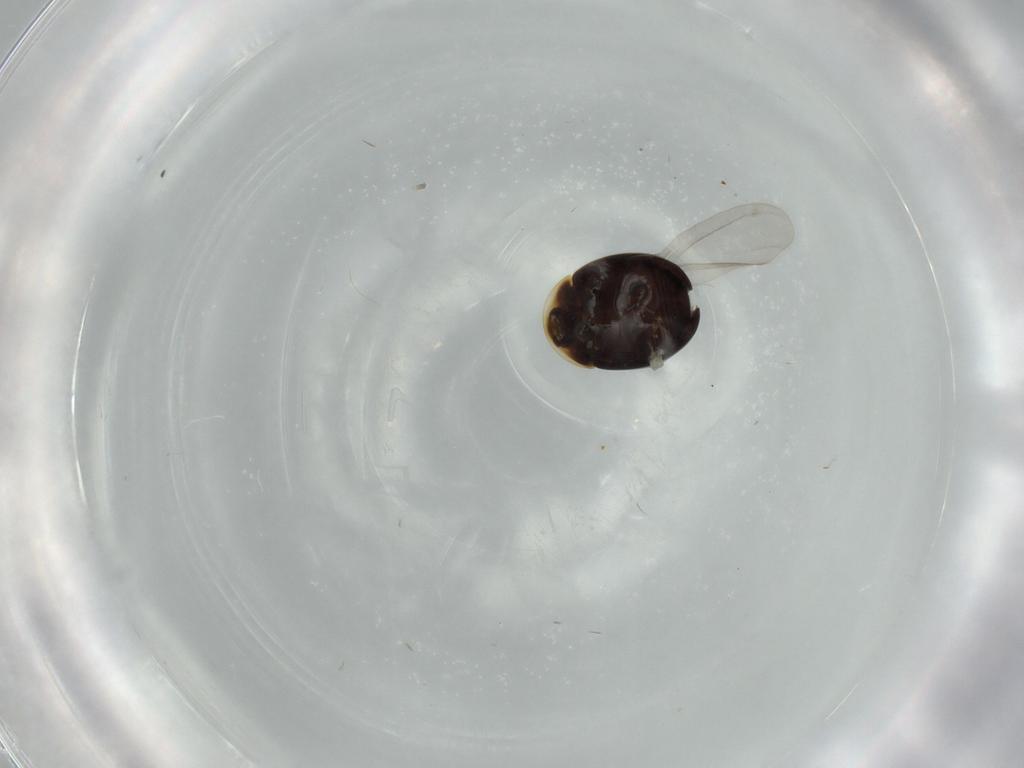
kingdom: Animalia
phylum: Arthropoda
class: Insecta
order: Coleoptera
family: Corylophidae
